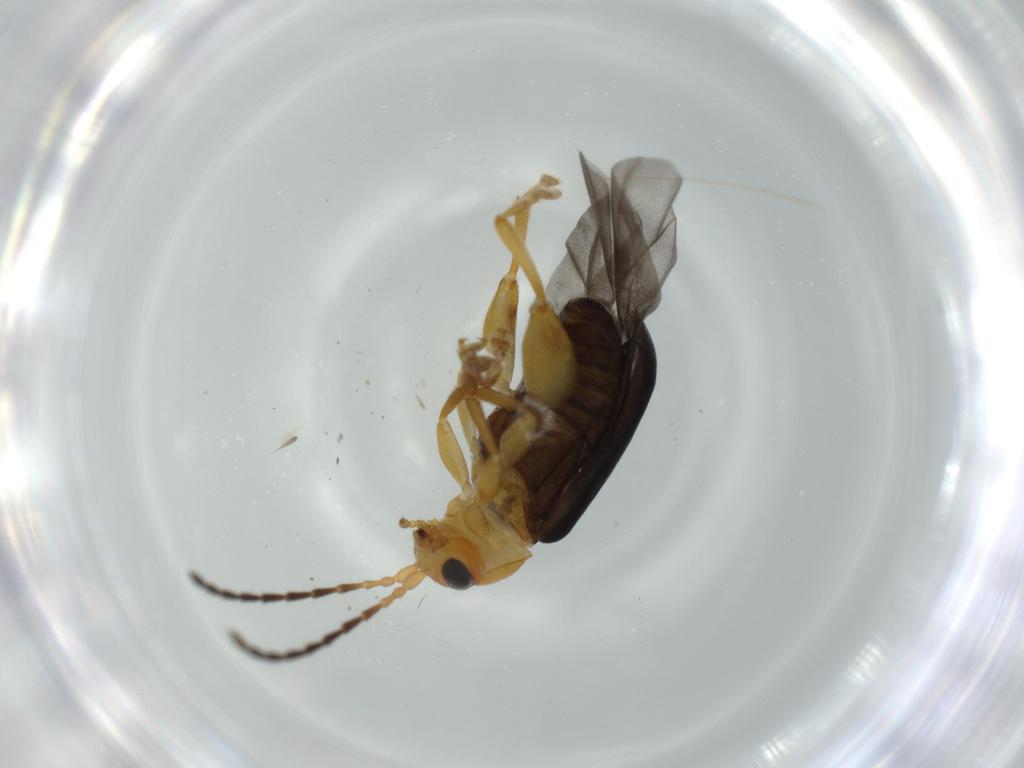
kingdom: Animalia
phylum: Arthropoda
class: Insecta
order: Coleoptera
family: Chrysomelidae
